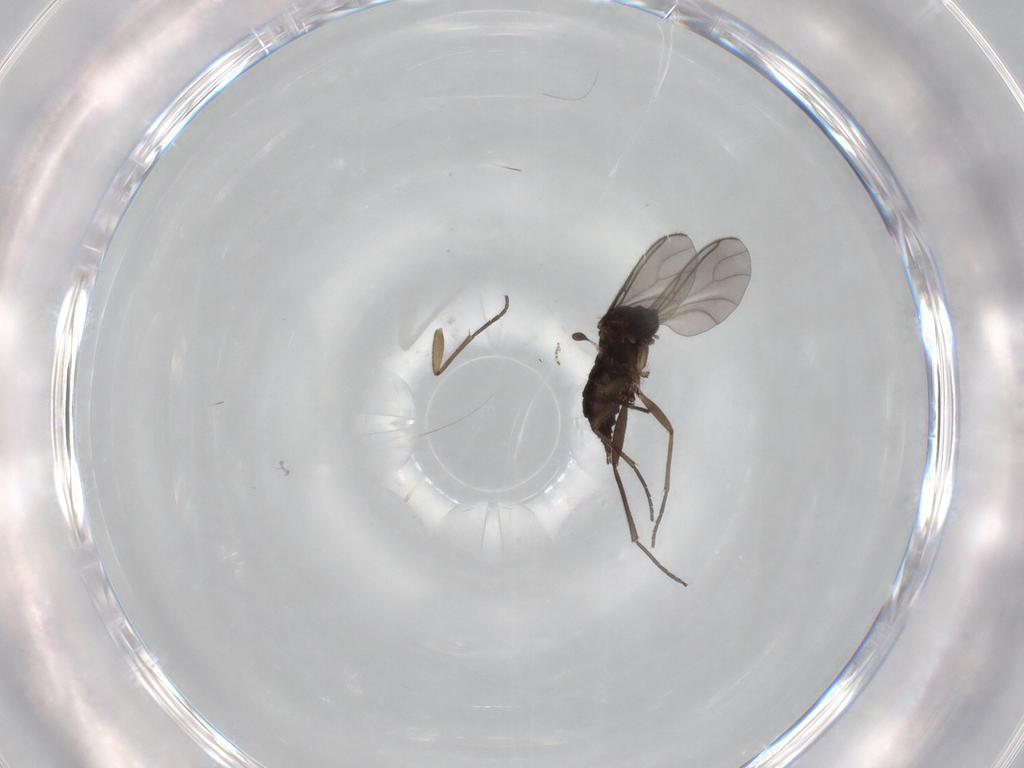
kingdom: Animalia
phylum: Arthropoda
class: Insecta
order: Diptera
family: Sciaridae
